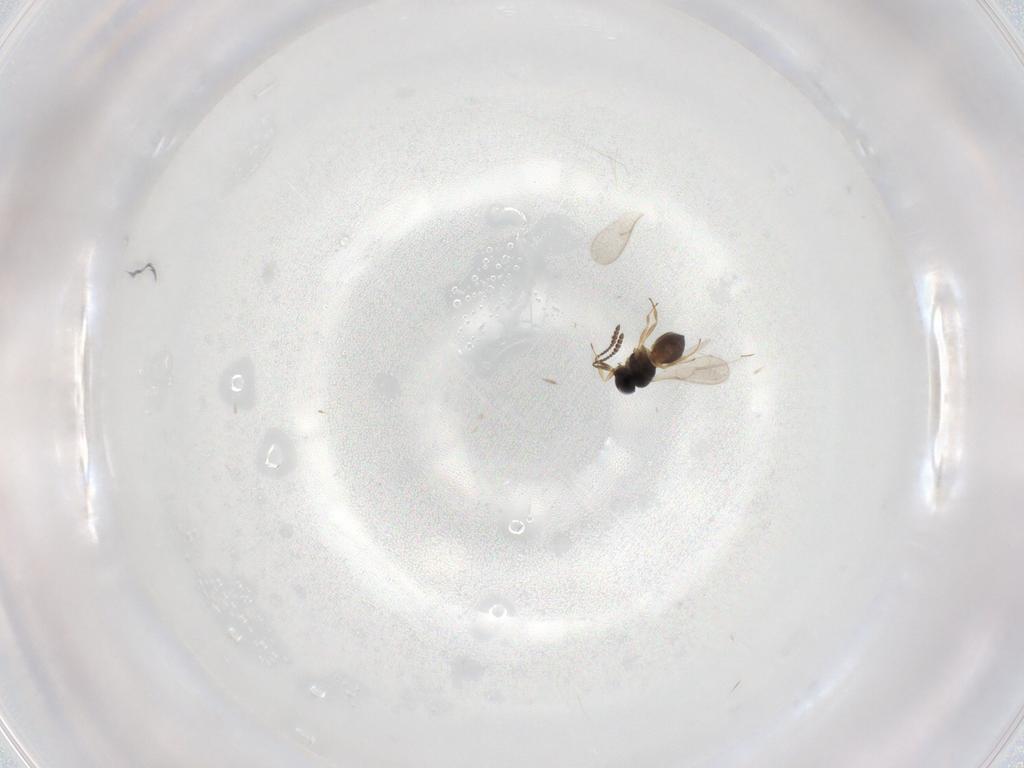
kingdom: Animalia
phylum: Arthropoda
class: Insecta
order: Hymenoptera
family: Scelionidae
